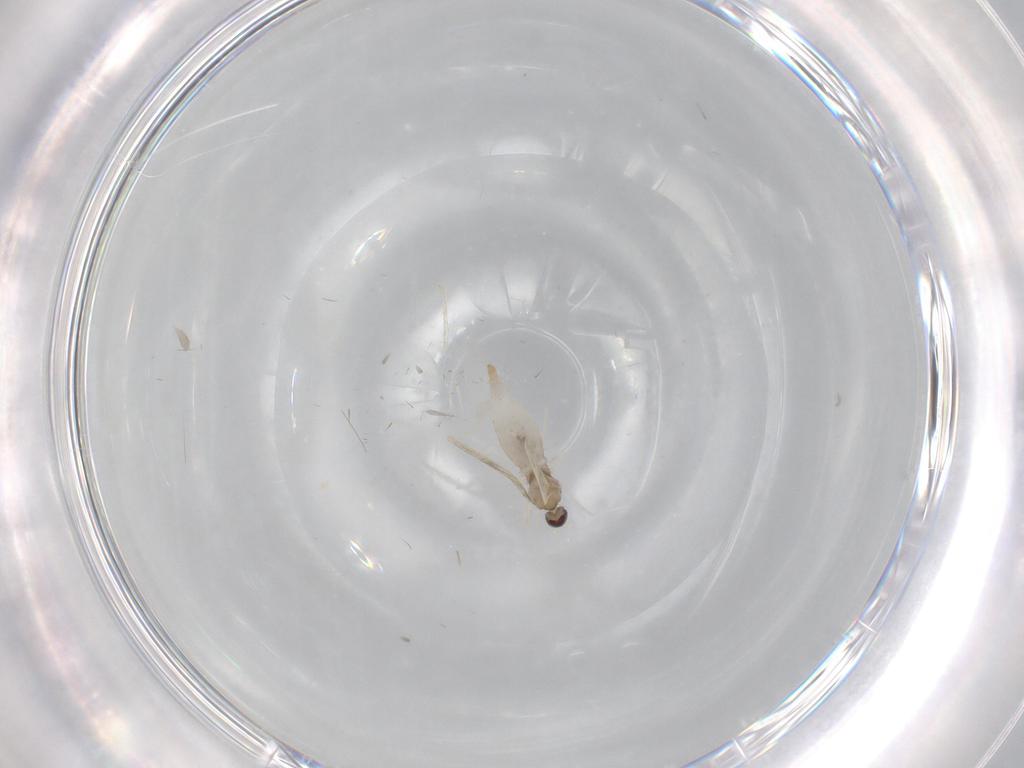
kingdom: Animalia
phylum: Arthropoda
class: Insecta
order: Diptera
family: Cecidomyiidae
